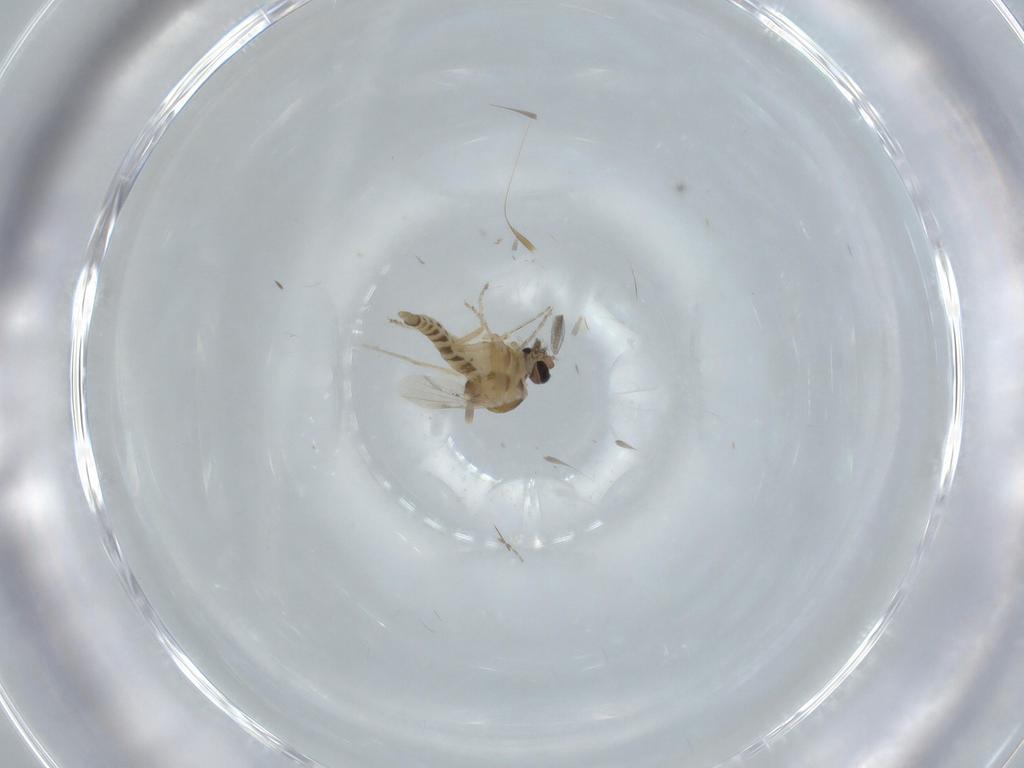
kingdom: Animalia
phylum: Arthropoda
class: Insecta
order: Diptera
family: Ceratopogonidae
